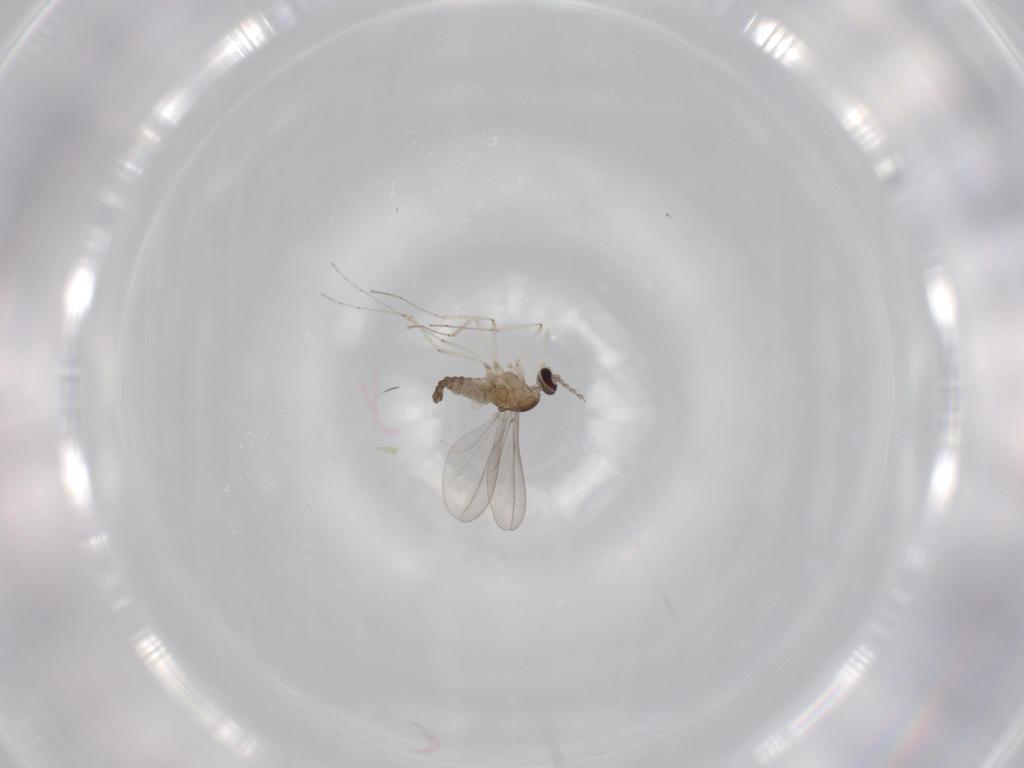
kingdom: Animalia
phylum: Arthropoda
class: Insecta
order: Diptera
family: Cecidomyiidae
